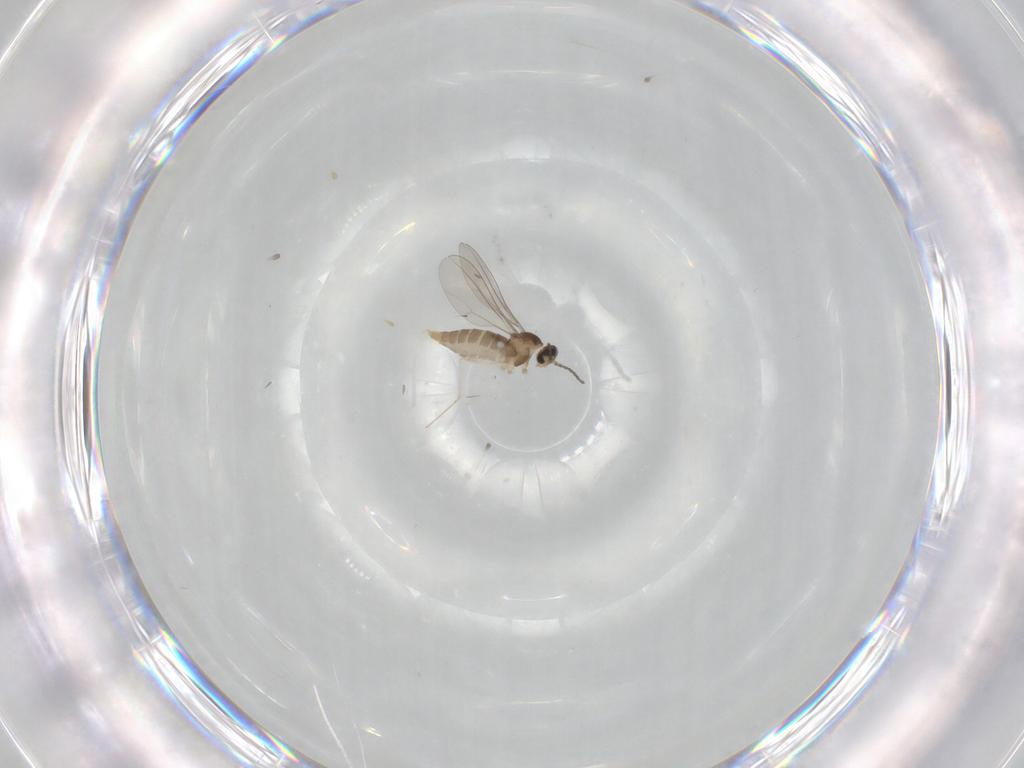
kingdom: Animalia
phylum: Arthropoda
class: Insecta
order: Diptera
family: Cecidomyiidae
